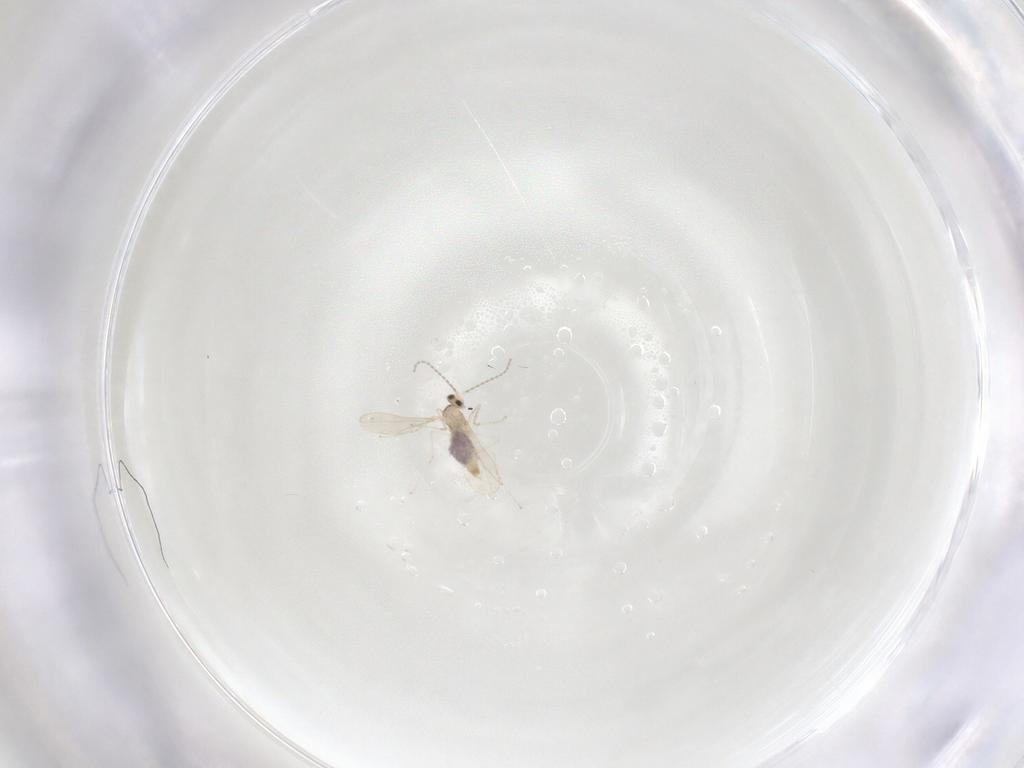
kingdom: Animalia
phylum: Arthropoda
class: Insecta
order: Diptera
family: Cecidomyiidae
